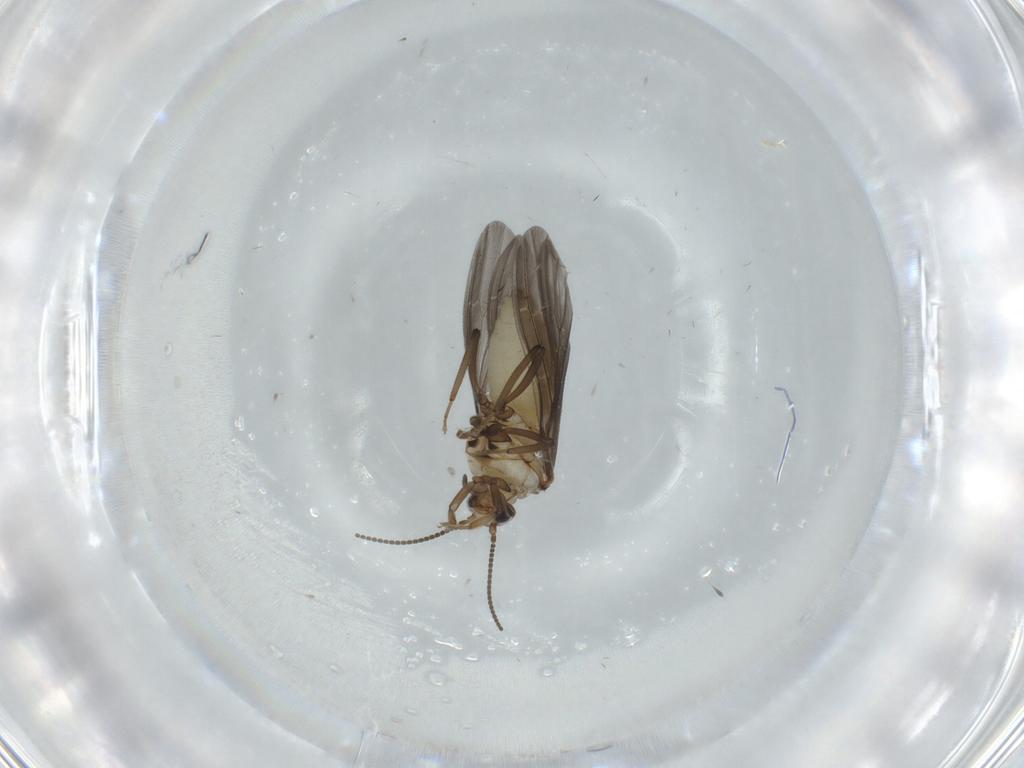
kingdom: Animalia
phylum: Arthropoda
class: Insecta
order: Neuroptera
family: Coniopterygidae
